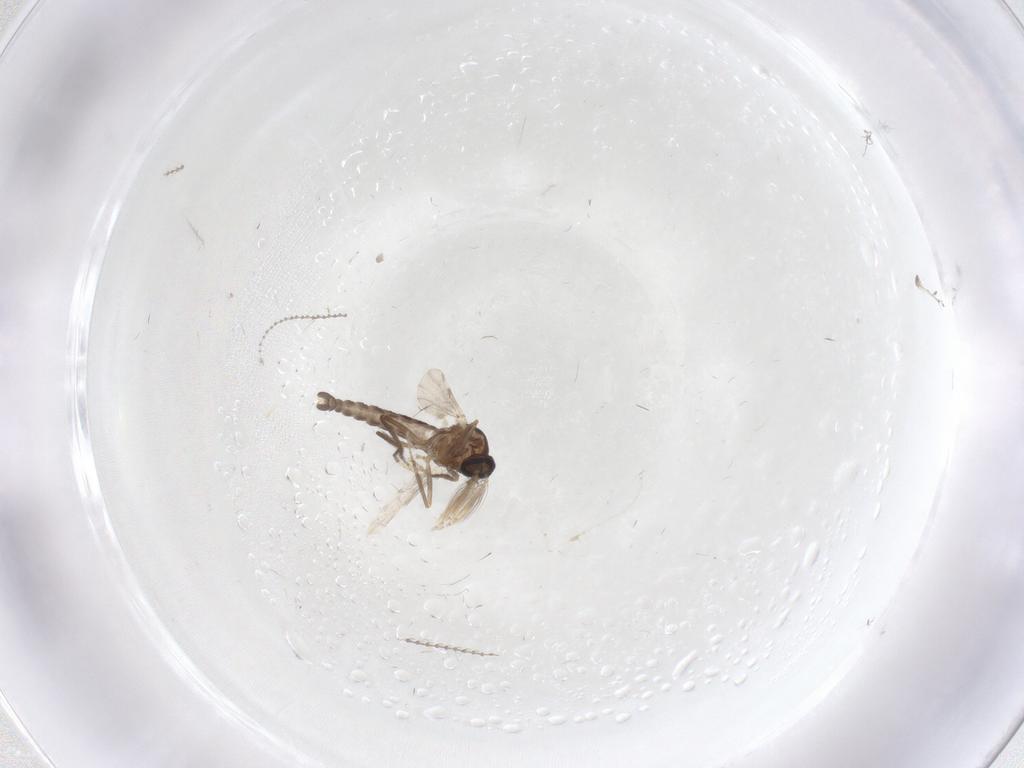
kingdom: Animalia
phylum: Arthropoda
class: Insecta
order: Diptera
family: Ceratopogonidae
